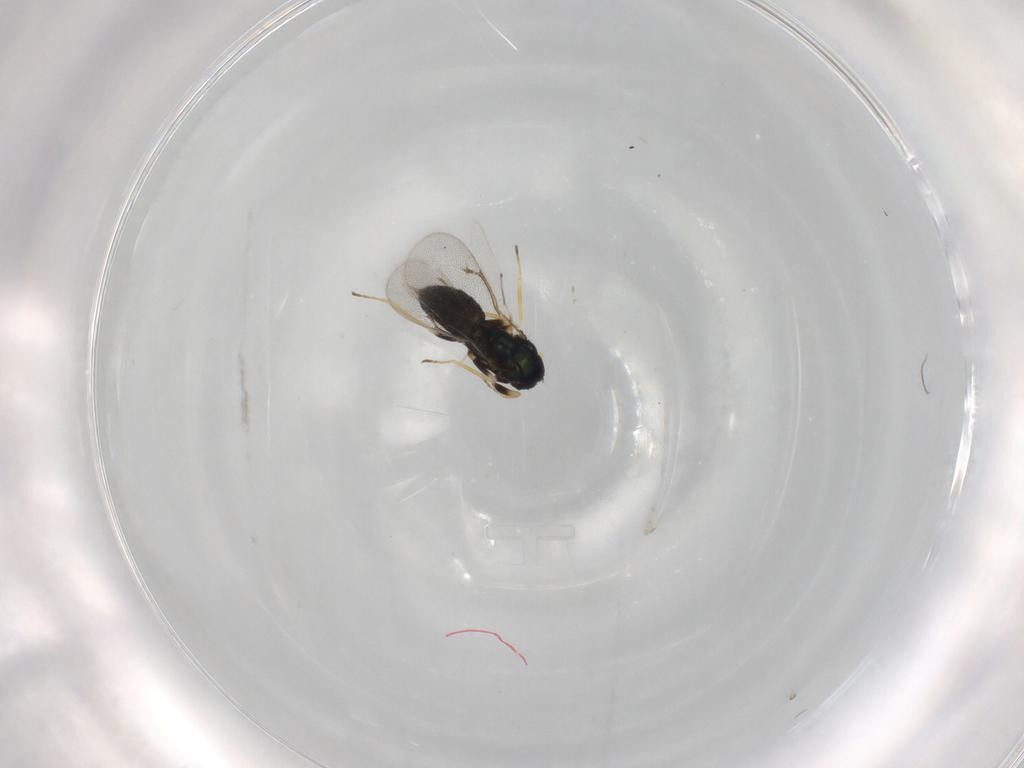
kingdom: Animalia
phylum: Arthropoda
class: Insecta
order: Hymenoptera
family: Eulophidae
